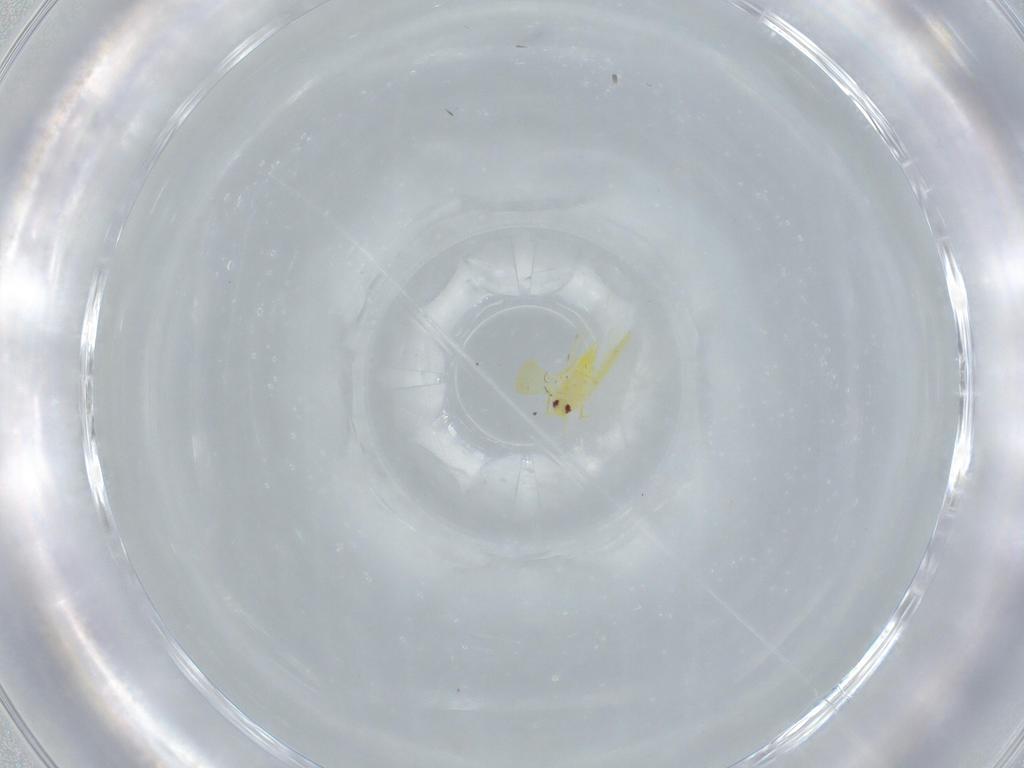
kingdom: Animalia
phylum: Arthropoda
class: Insecta
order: Hemiptera
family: Aleyrodidae
